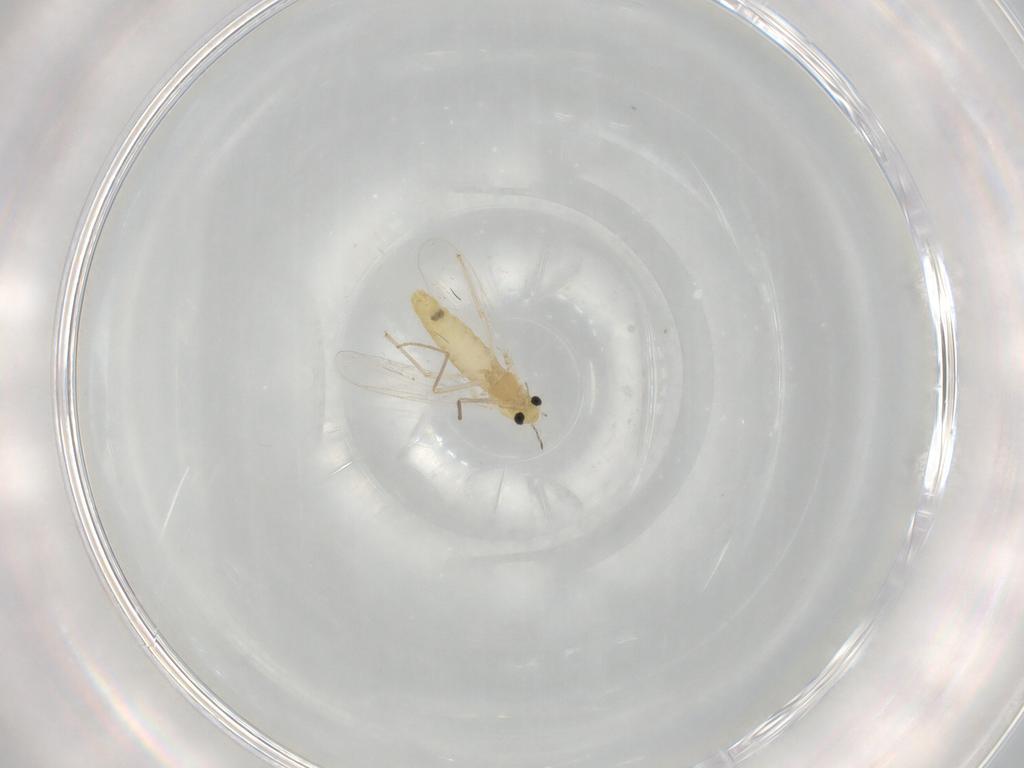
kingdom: Animalia
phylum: Arthropoda
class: Insecta
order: Diptera
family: Chironomidae
